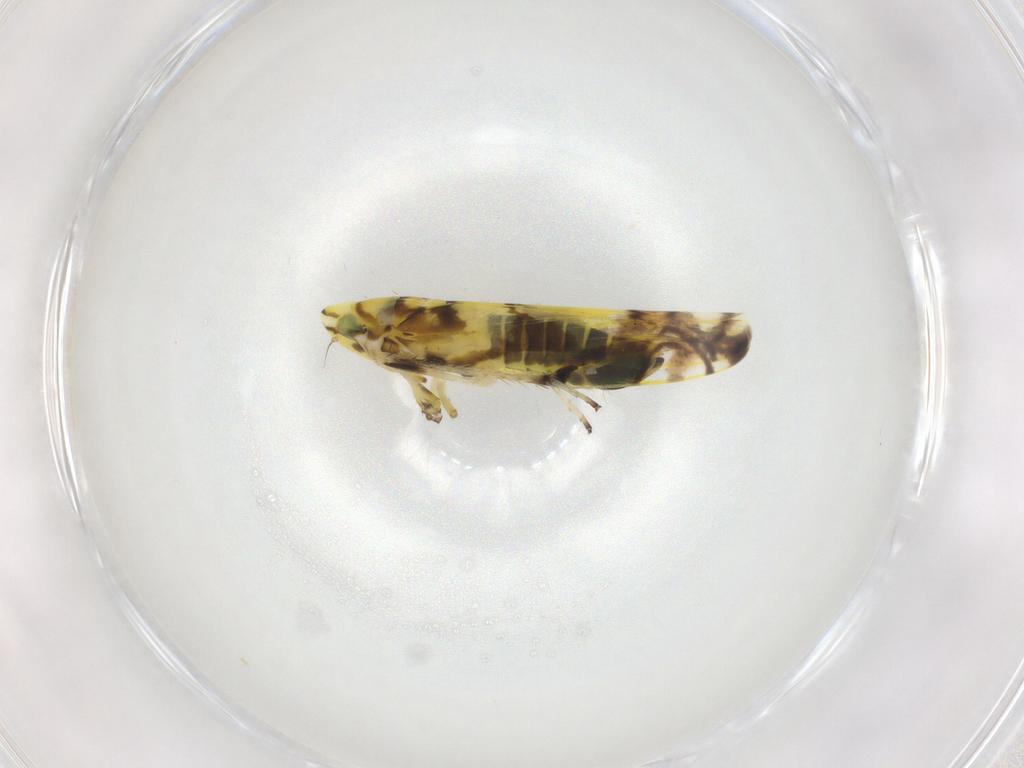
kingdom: Animalia
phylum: Arthropoda
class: Insecta
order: Hemiptera
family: Cicadellidae
